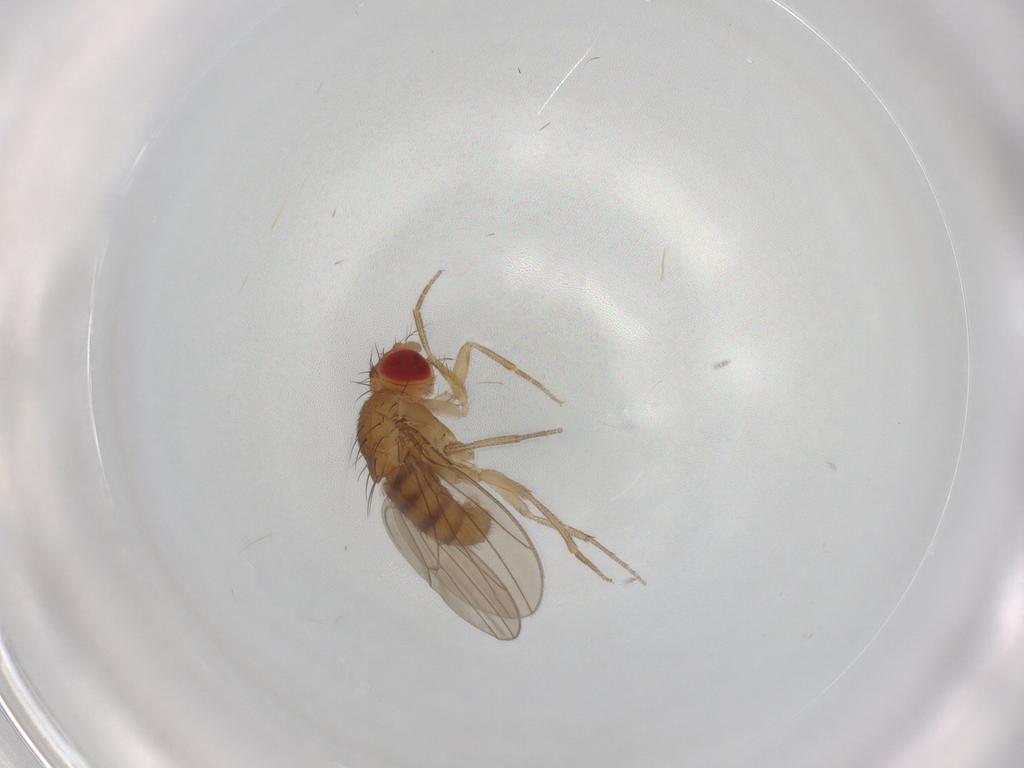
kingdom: Animalia
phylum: Arthropoda
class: Insecta
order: Diptera
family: Drosophilidae
